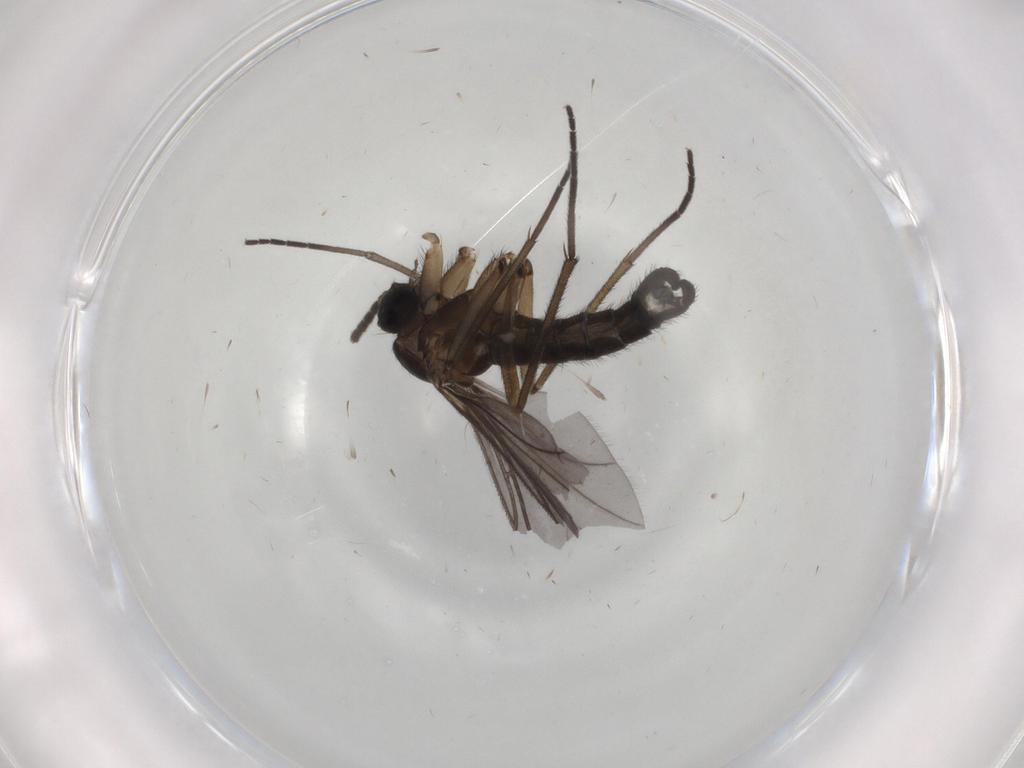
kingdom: Animalia
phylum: Arthropoda
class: Insecta
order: Diptera
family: Sciaridae
